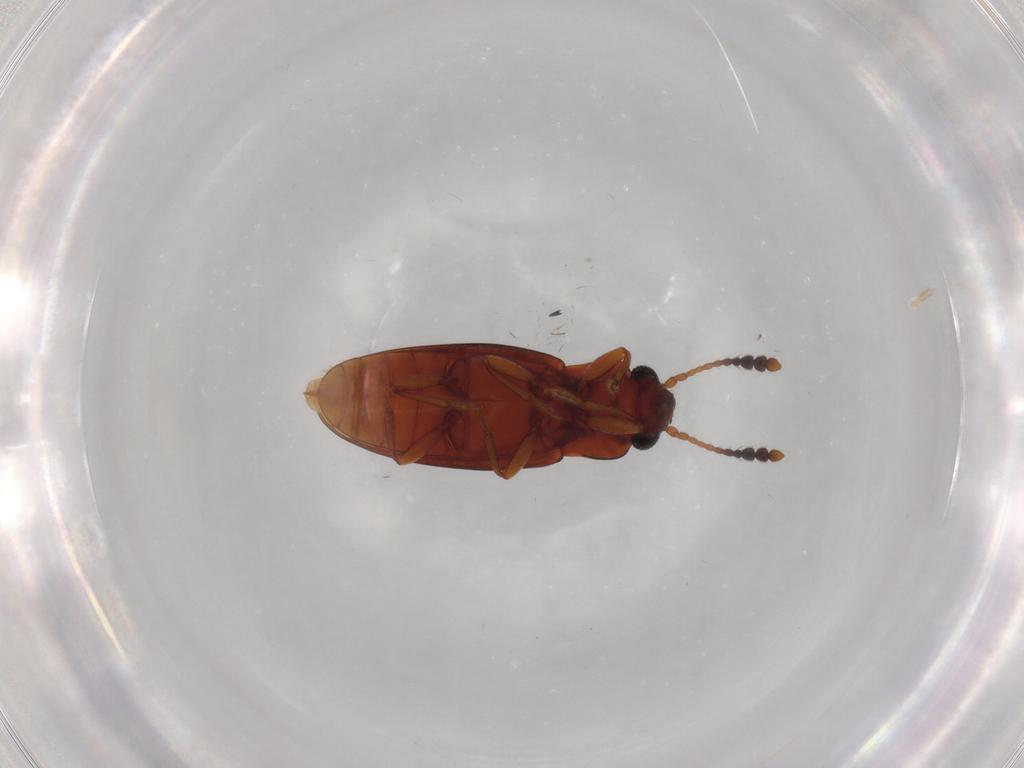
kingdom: Animalia
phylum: Arthropoda
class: Insecta
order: Coleoptera
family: Erotylidae
